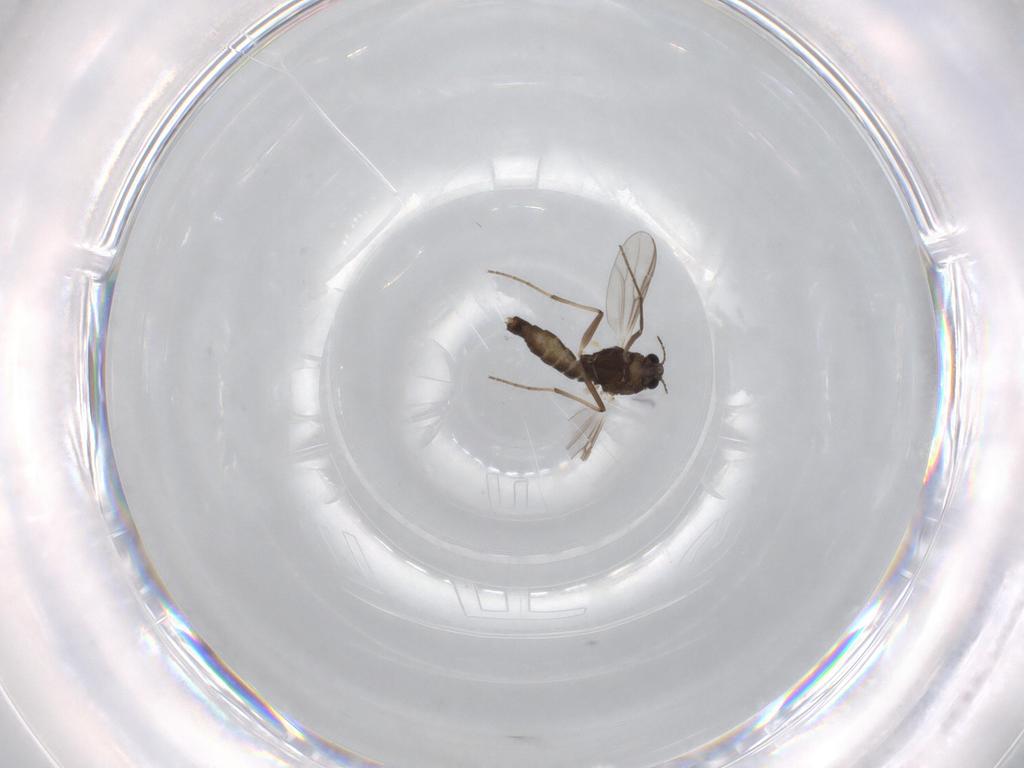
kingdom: Animalia
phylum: Arthropoda
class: Insecta
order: Diptera
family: Chironomidae
